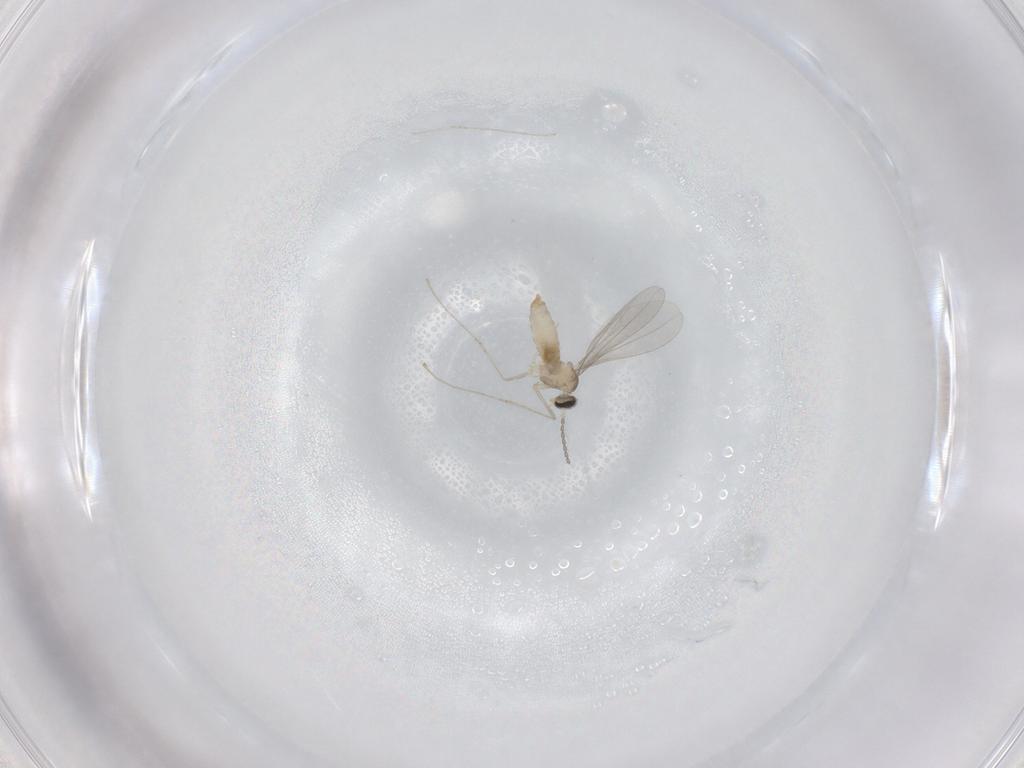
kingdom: Animalia
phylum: Arthropoda
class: Insecta
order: Diptera
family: Cecidomyiidae
